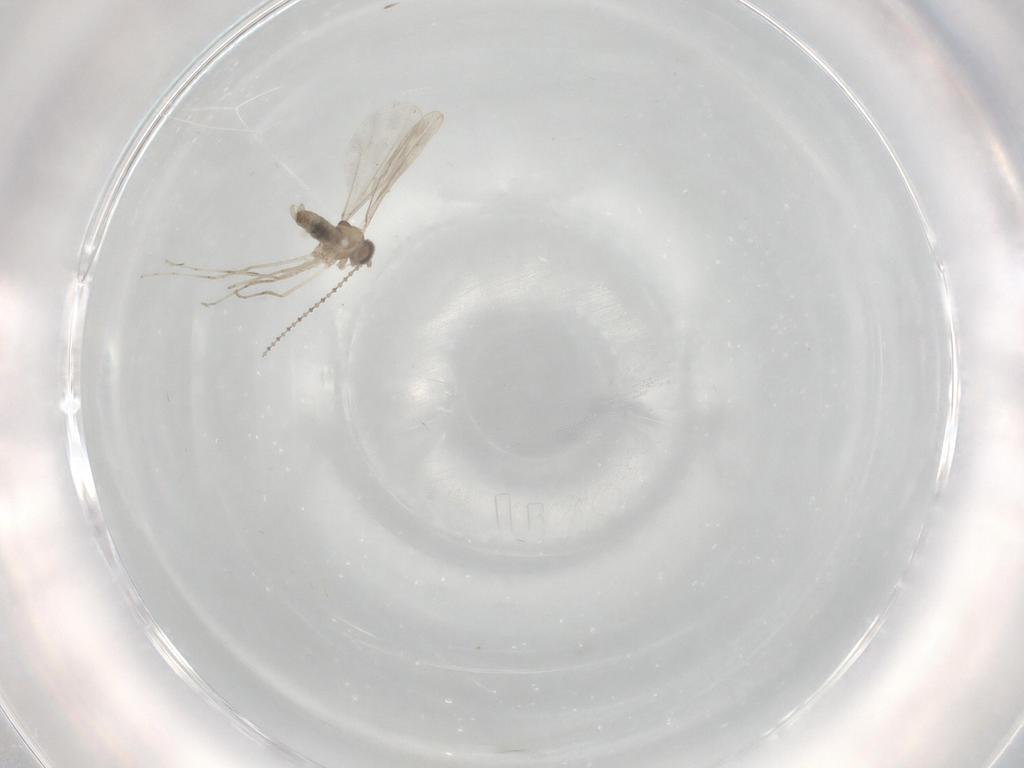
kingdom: Animalia
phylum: Arthropoda
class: Insecta
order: Diptera
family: Cecidomyiidae
